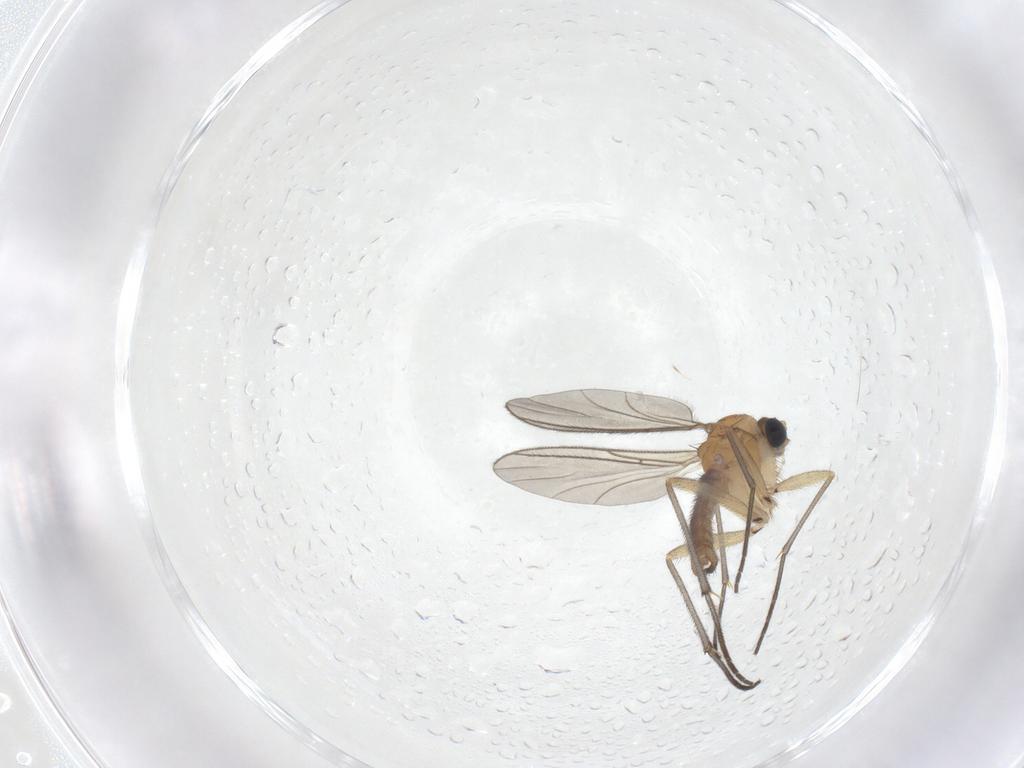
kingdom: Animalia
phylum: Arthropoda
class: Insecta
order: Diptera
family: Sciaridae
